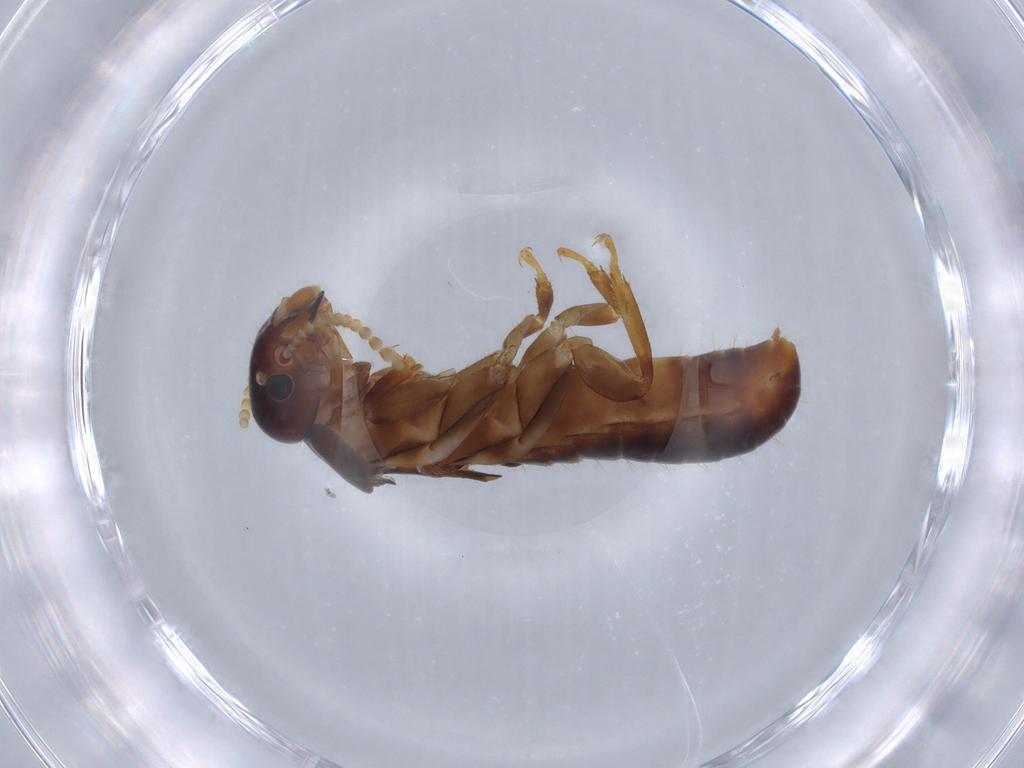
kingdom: Animalia
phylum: Arthropoda
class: Insecta
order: Blattodea
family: Kalotermitidae
